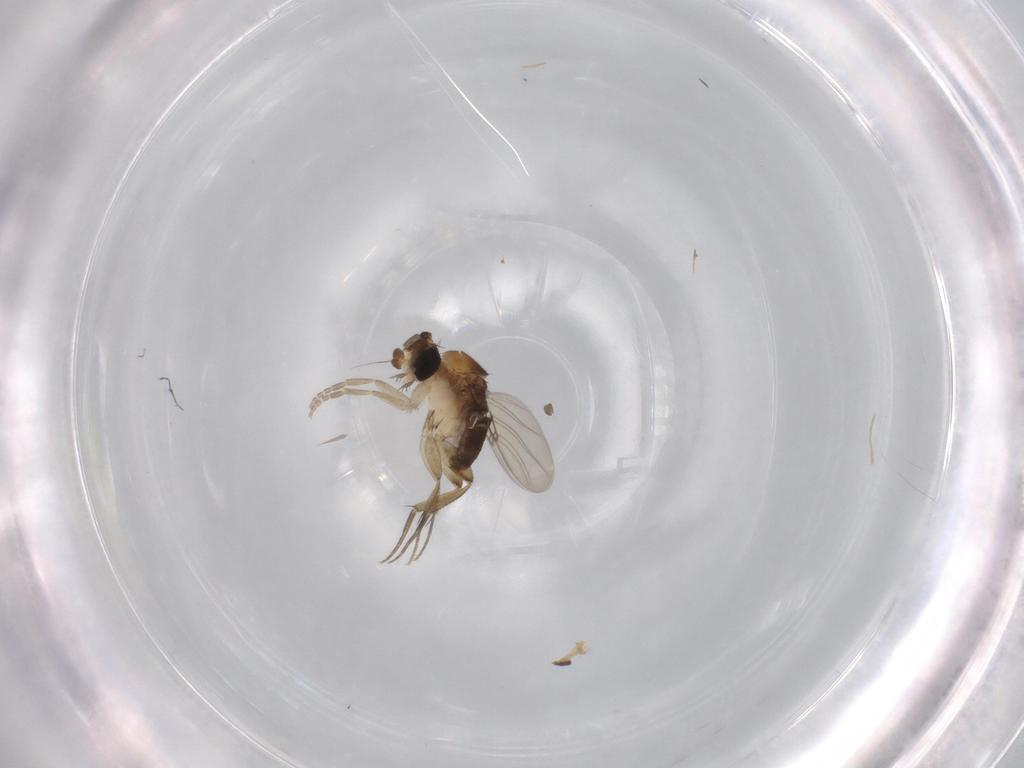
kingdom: Animalia
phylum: Arthropoda
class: Insecta
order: Diptera
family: Phoridae
